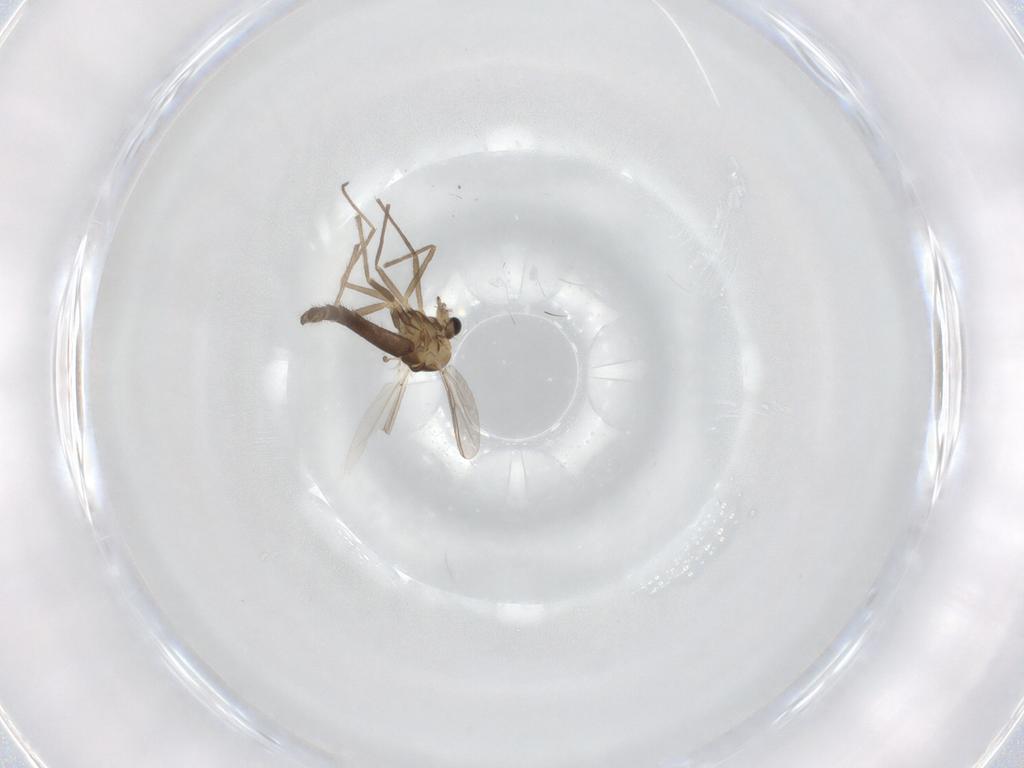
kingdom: Animalia
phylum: Arthropoda
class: Insecta
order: Diptera
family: Chironomidae
